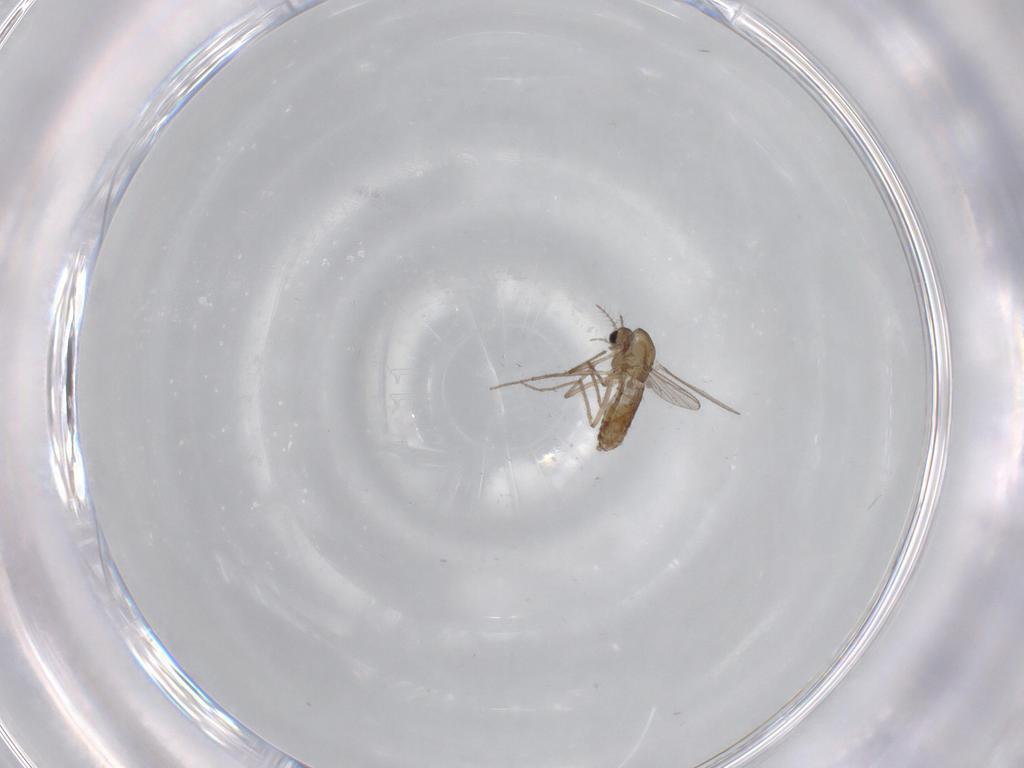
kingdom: Animalia
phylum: Arthropoda
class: Insecta
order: Diptera
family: Chironomidae
